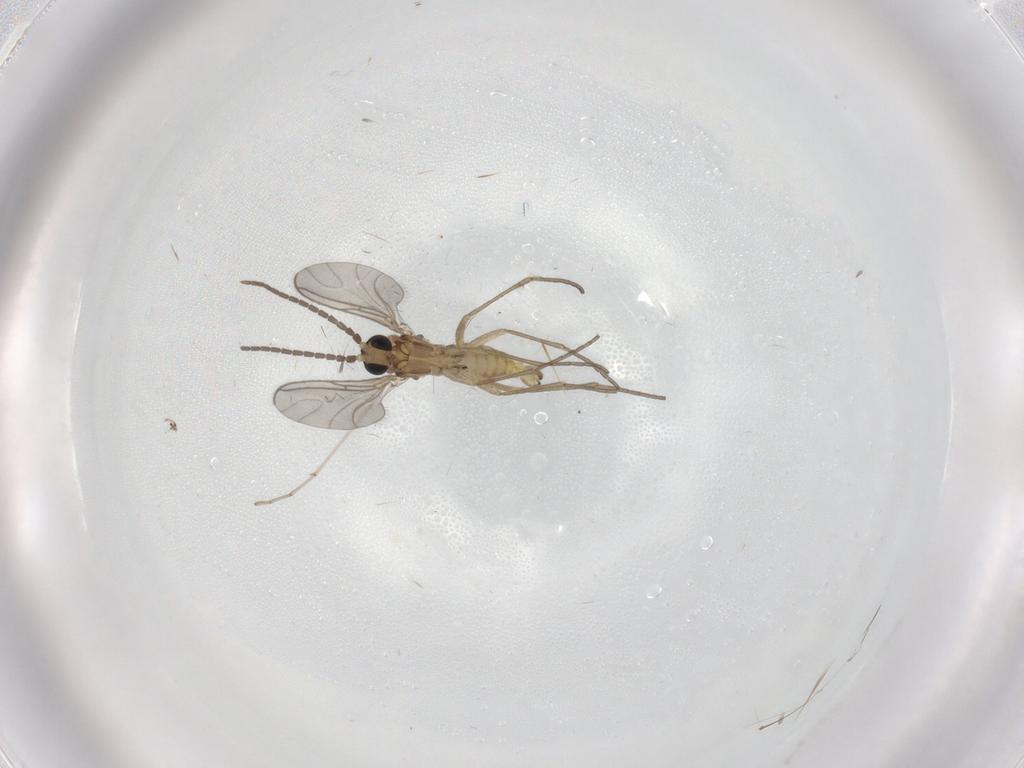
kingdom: Animalia
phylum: Arthropoda
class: Insecta
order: Diptera
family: Sciaridae
